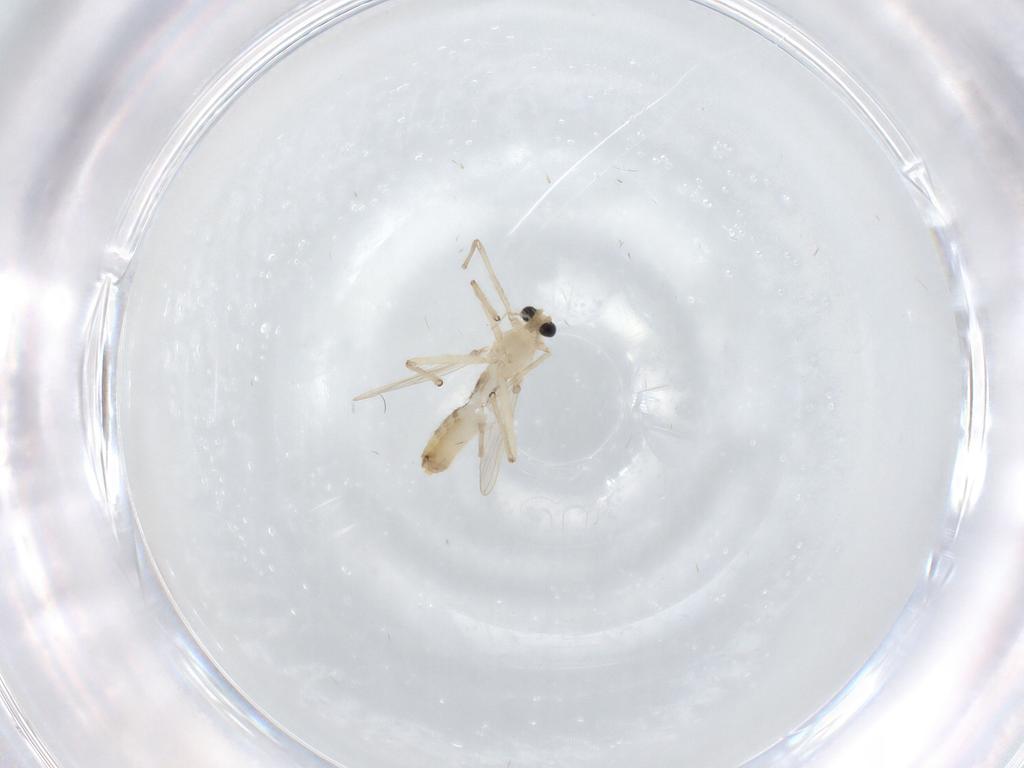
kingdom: Animalia
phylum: Arthropoda
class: Insecta
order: Diptera
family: Chironomidae
